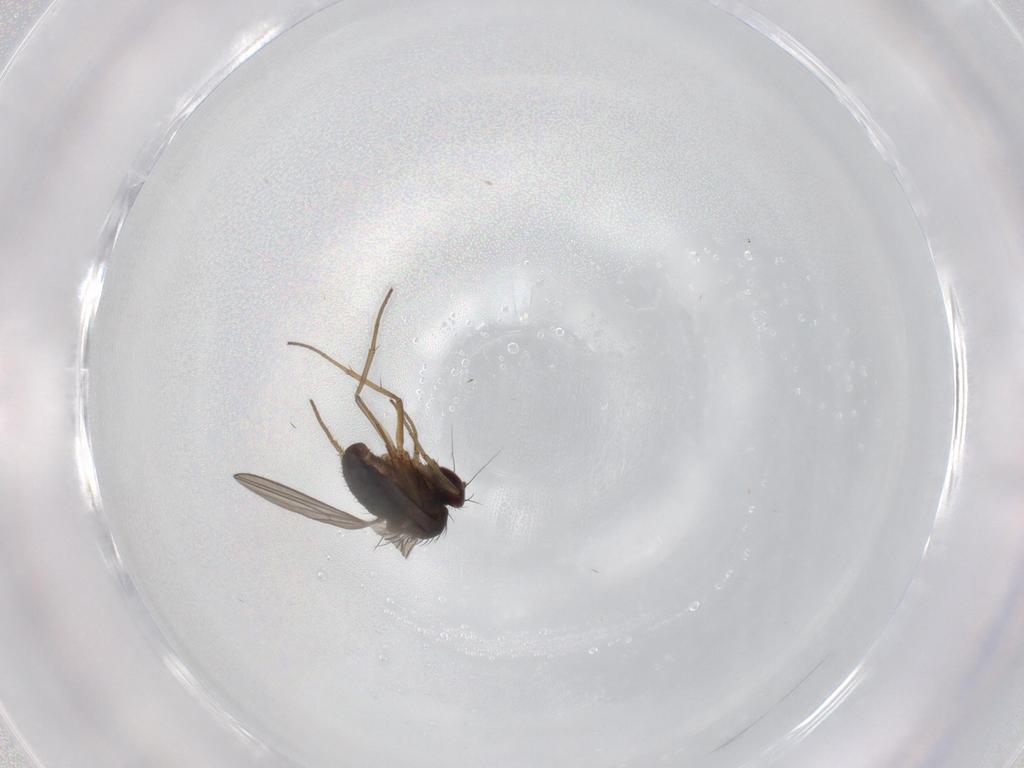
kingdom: Animalia
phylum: Arthropoda
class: Insecta
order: Diptera
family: Dolichopodidae
